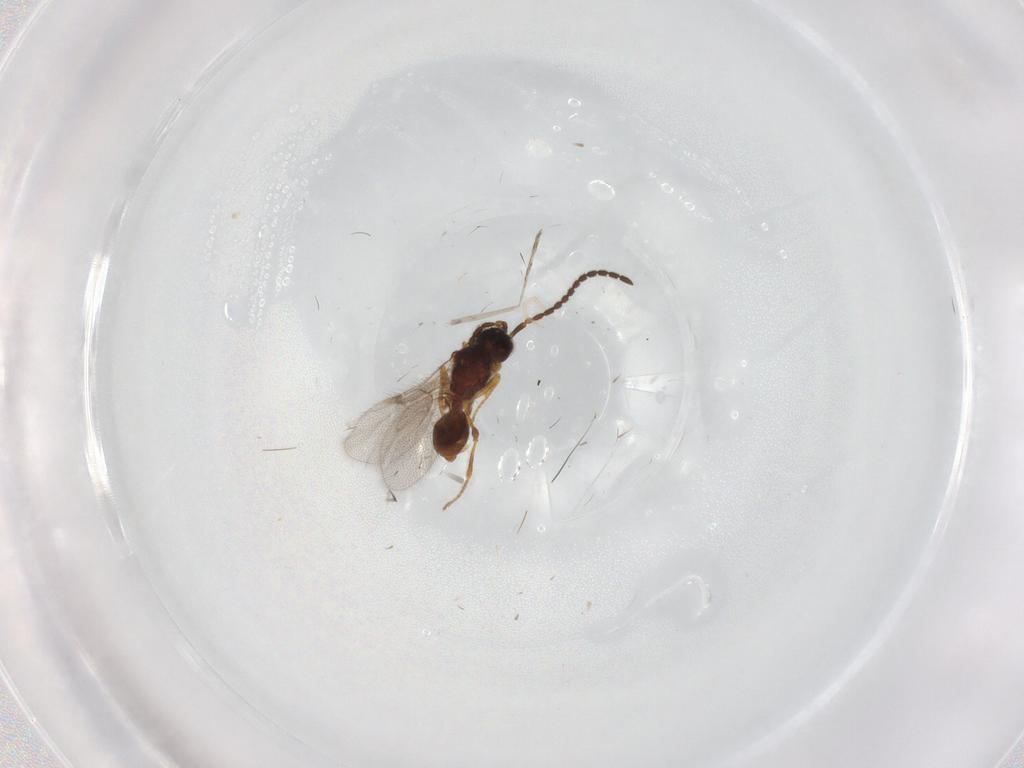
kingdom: Animalia
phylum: Arthropoda
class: Insecta
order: Hymenoptera
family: Diapriidae
